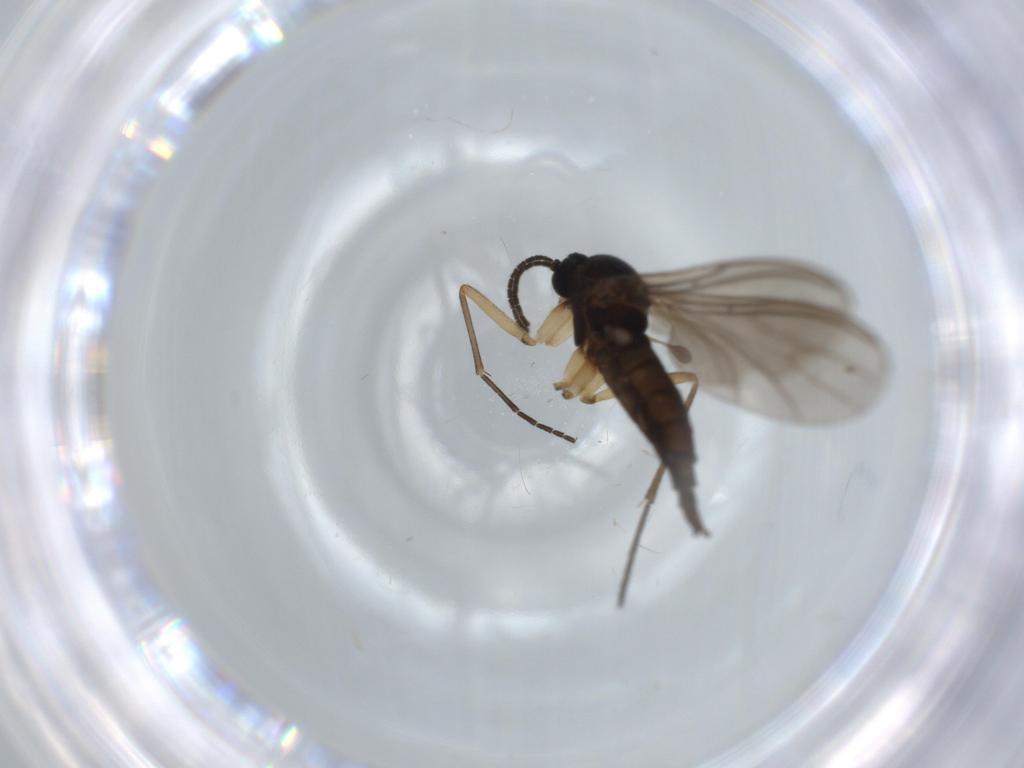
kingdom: Animalia
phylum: Arthropoda
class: Insecta
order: Diptera
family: Sciaridae
